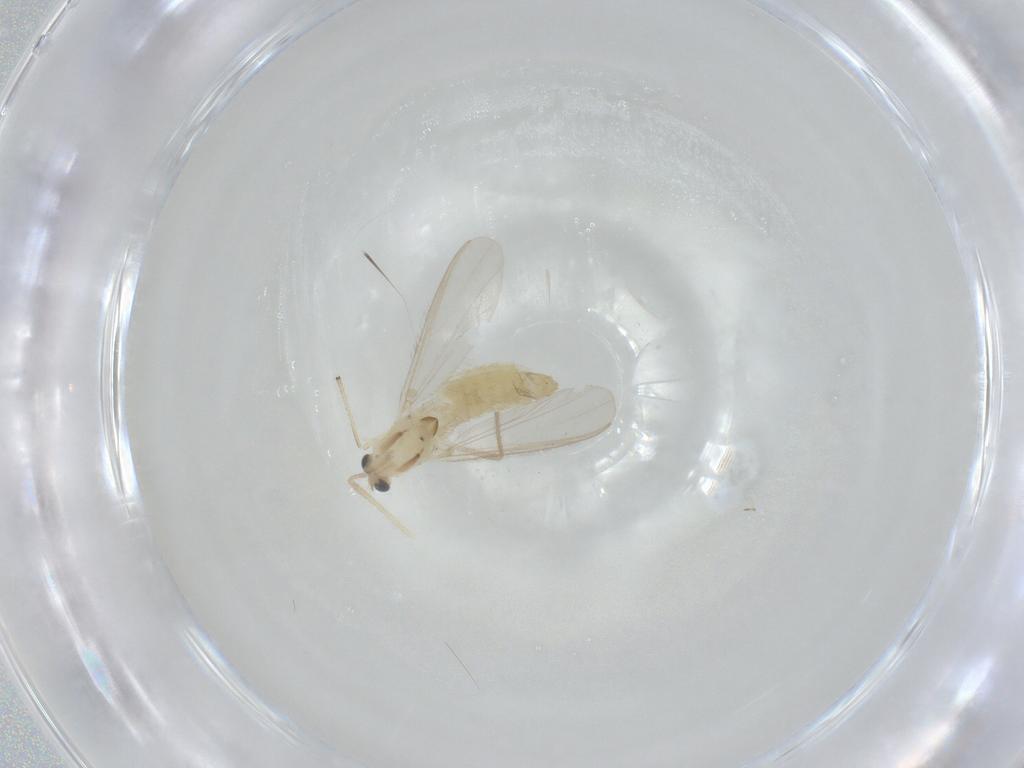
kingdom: Animalia
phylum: Arthropoda
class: Insecta
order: Diptera
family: Chironomidae
